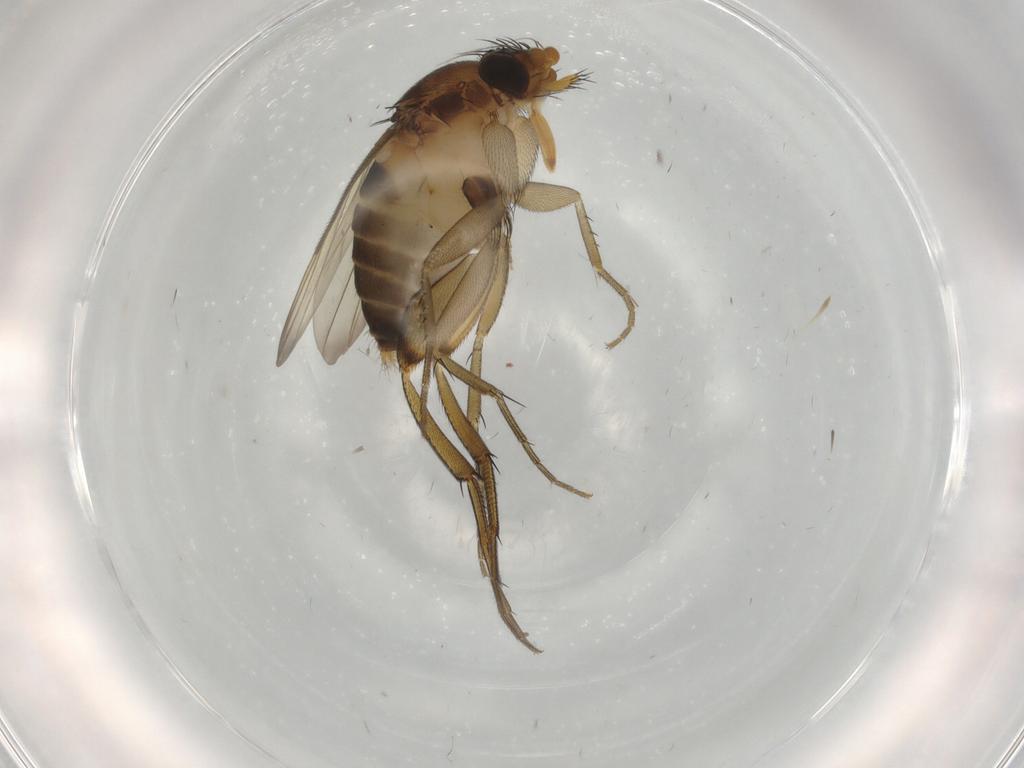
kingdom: Animalia
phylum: Arthropoda
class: Insecta
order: Diptera
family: Phoridae
